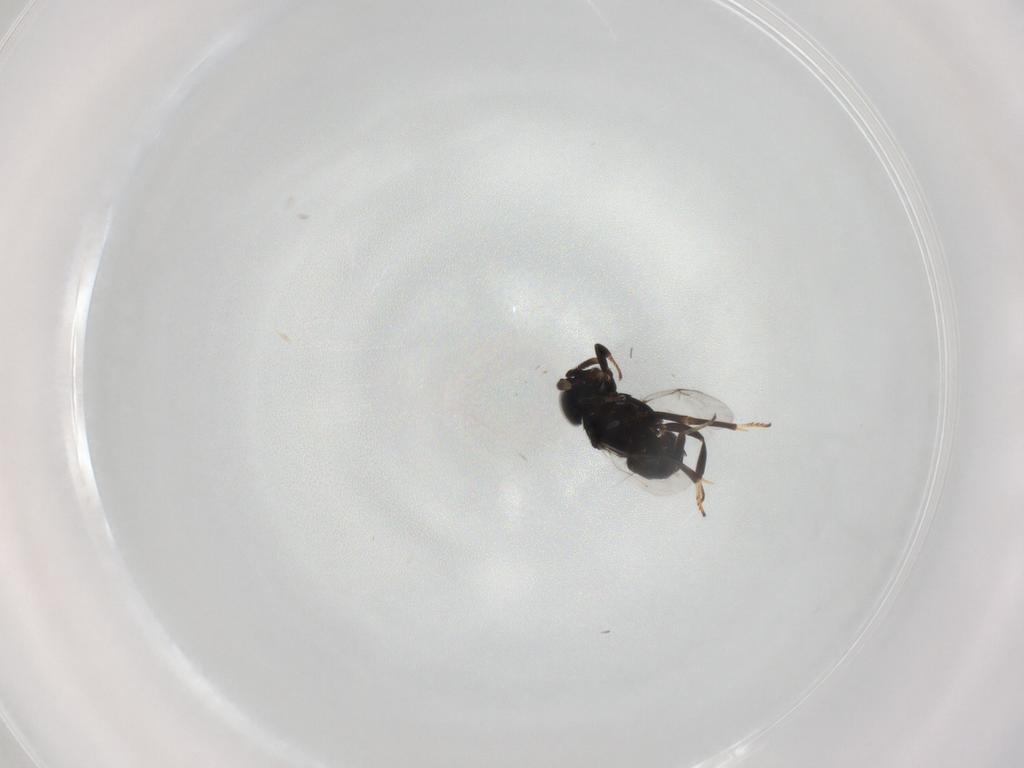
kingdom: Animalia
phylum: Arthropoda
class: Insecta
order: Hymenoptera
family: Encyrtidae
